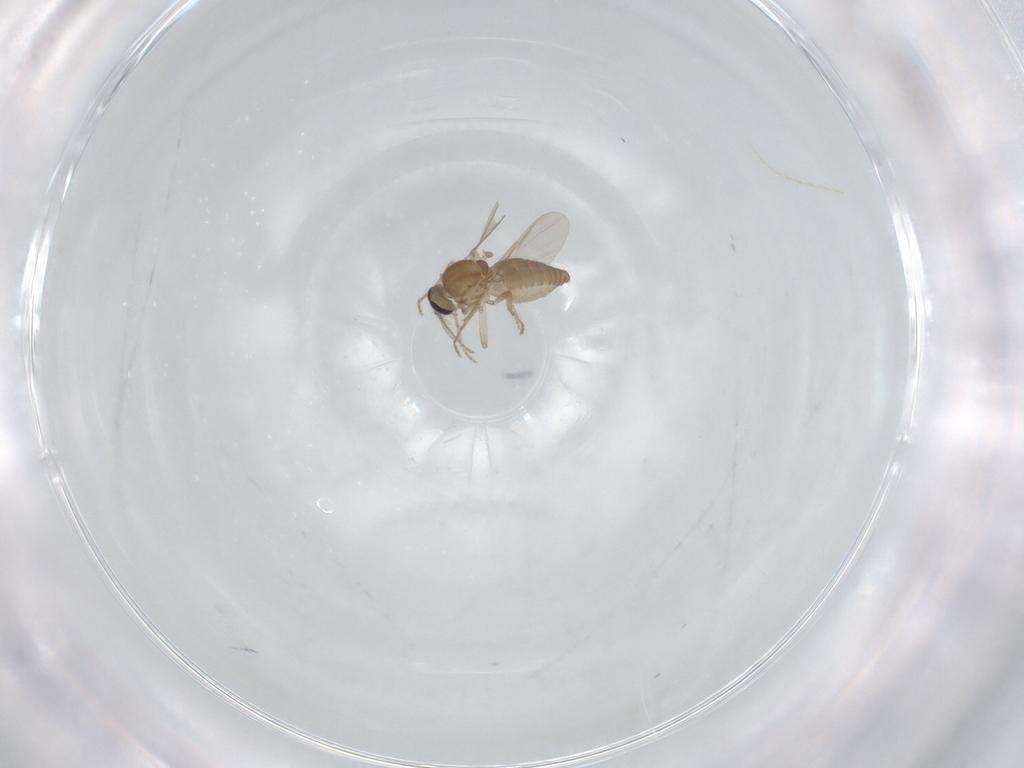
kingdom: Animalia
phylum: Arthropoda
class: Insecta
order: Diptera
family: Ceratopogonidae
